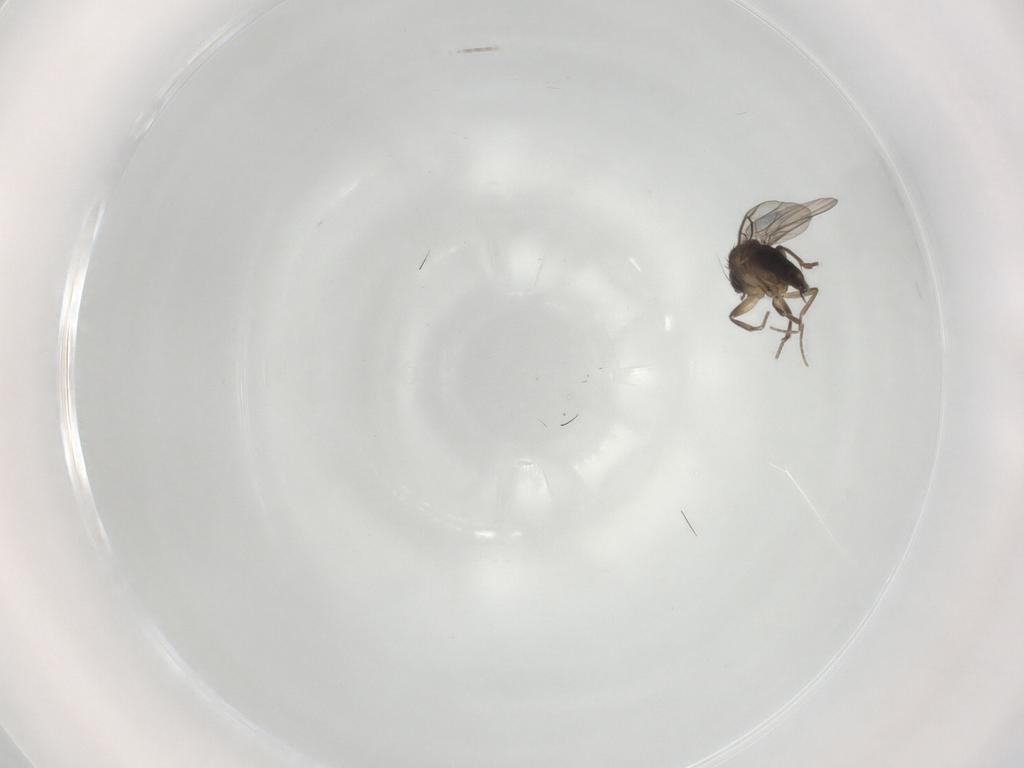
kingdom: Animalia
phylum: Arthropoda
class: Insecta
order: Diptera
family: Phoridae
